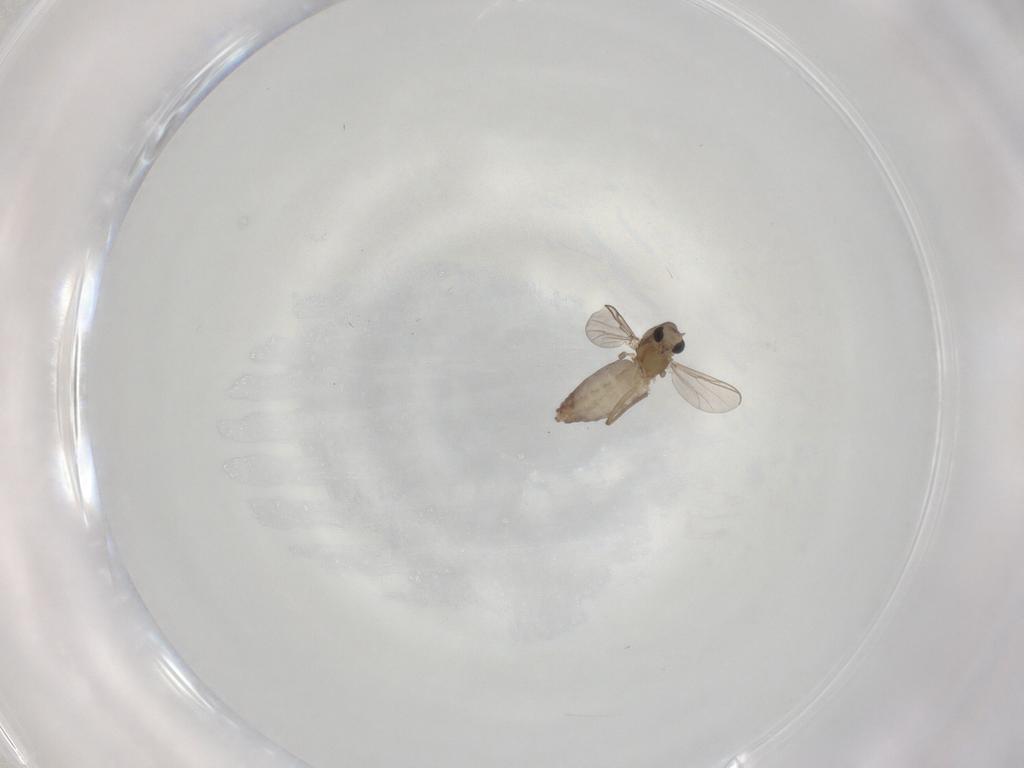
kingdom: Animalia
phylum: Arthropoda
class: Insecta
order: Diptera
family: Chironomidae
